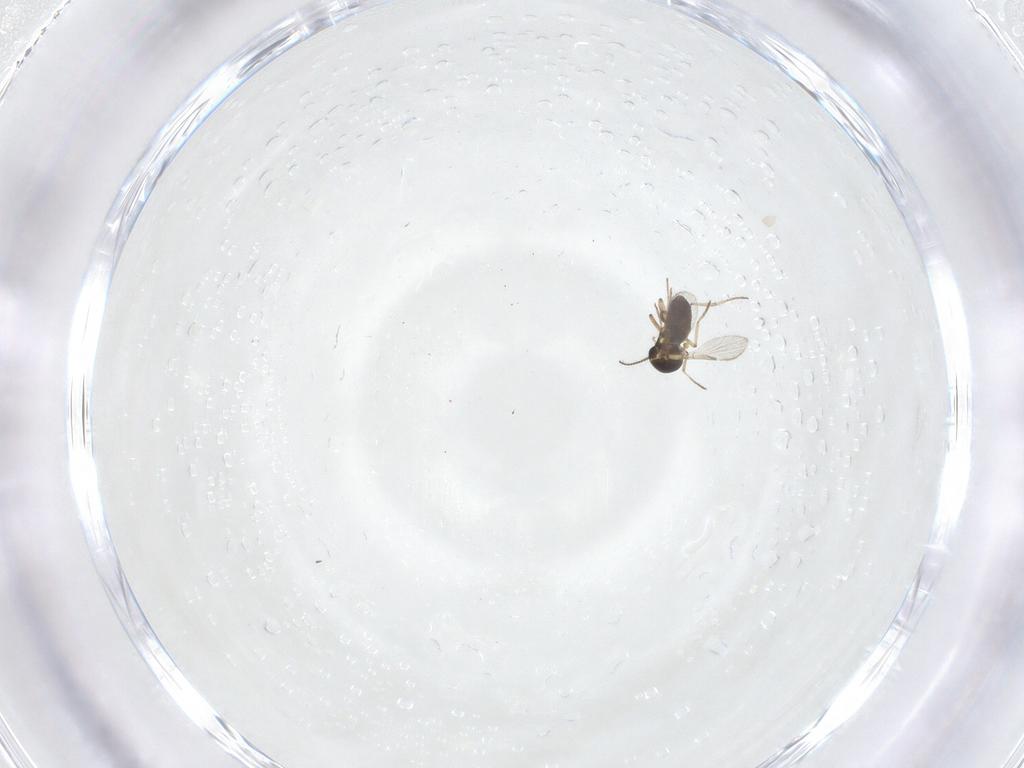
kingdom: Animalia
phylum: Arthropoda
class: Insecta
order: Diptera
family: Ceratopogonidae
